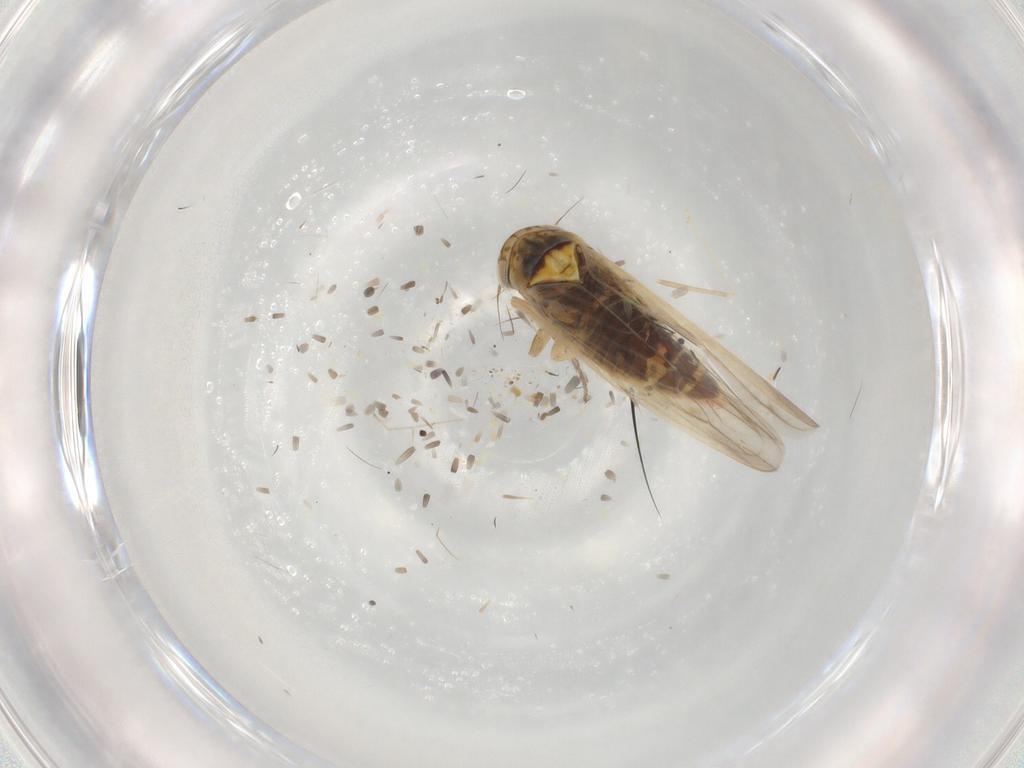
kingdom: Animalia
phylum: Arthropoda
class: Insecta
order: Hemiptera
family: Cicadellidae
